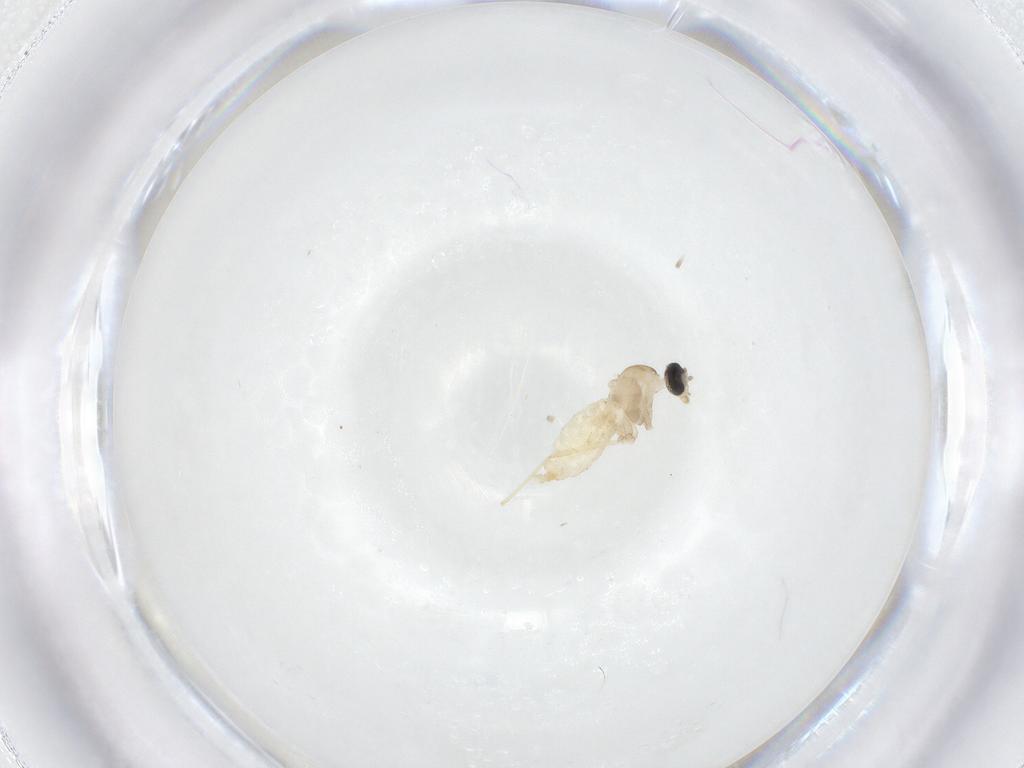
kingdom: Animalia
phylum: Arthropoda
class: Insecta
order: Diptera
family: Cecidomyiidae
